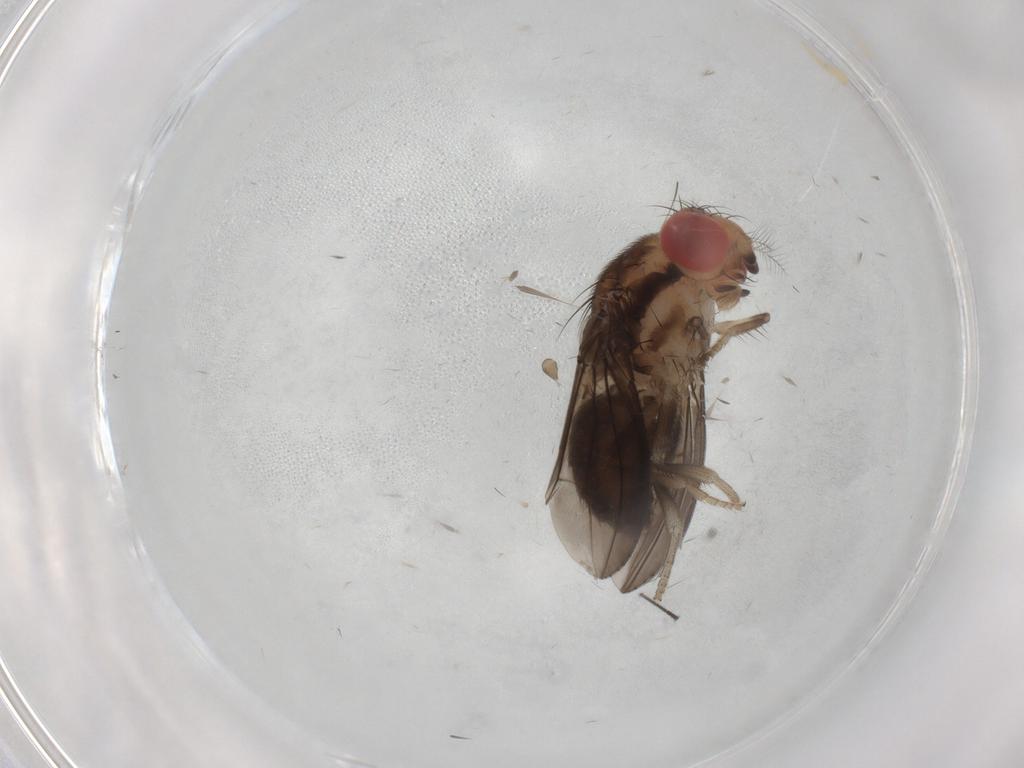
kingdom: Animalia
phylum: Arthropoda
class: Insecta
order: Diptera
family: Drosophilidae
